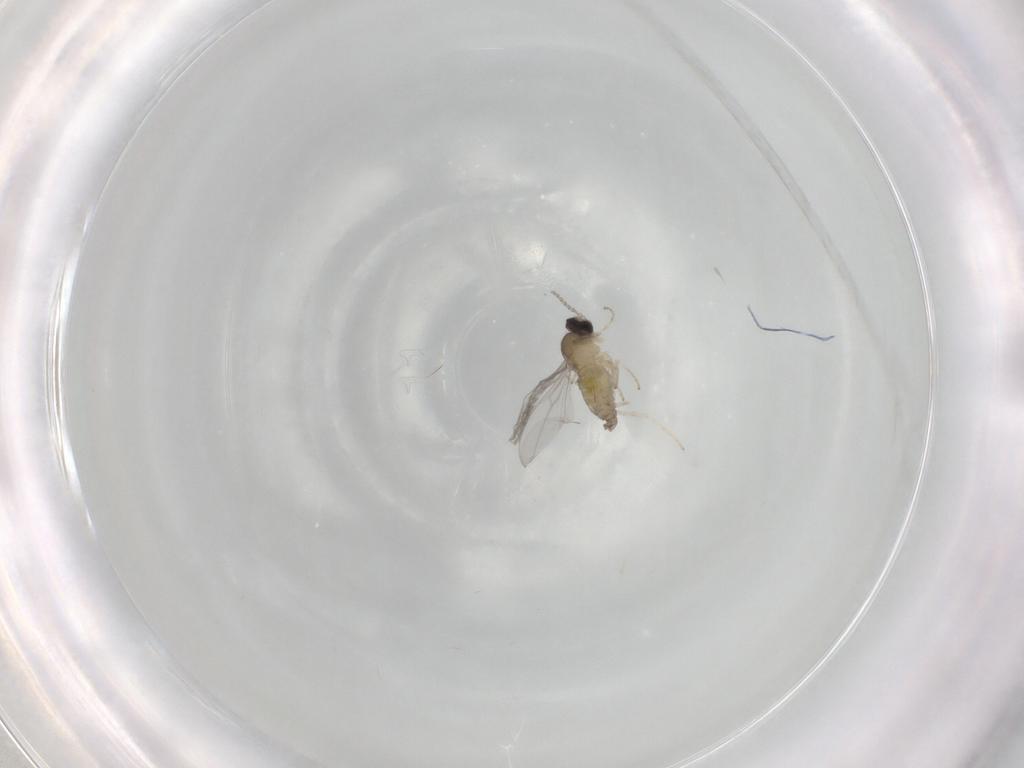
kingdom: Animalia
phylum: Arthropoda
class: Insecta
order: Diptera
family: Cecidomyiidae
